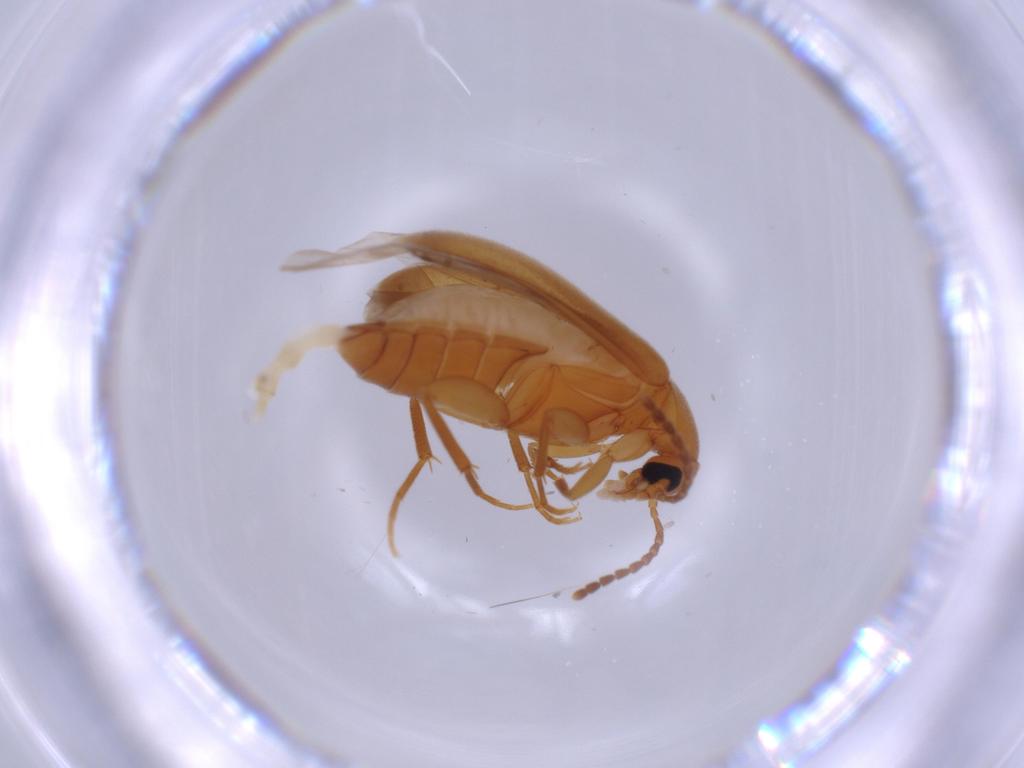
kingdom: Animalia
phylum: Arthropoda
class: Insecta
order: Coleoptera
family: Scraptiidae
